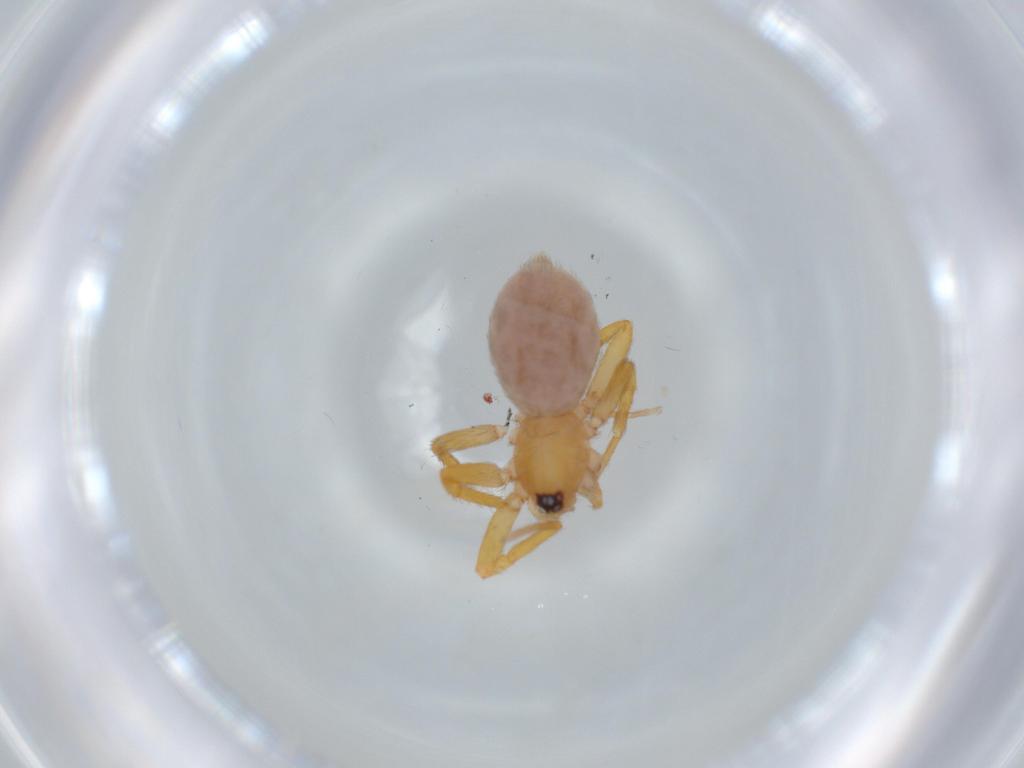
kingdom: Animalia
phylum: Arthropoda
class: Arachnida
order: Araneae
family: Oonopidae
